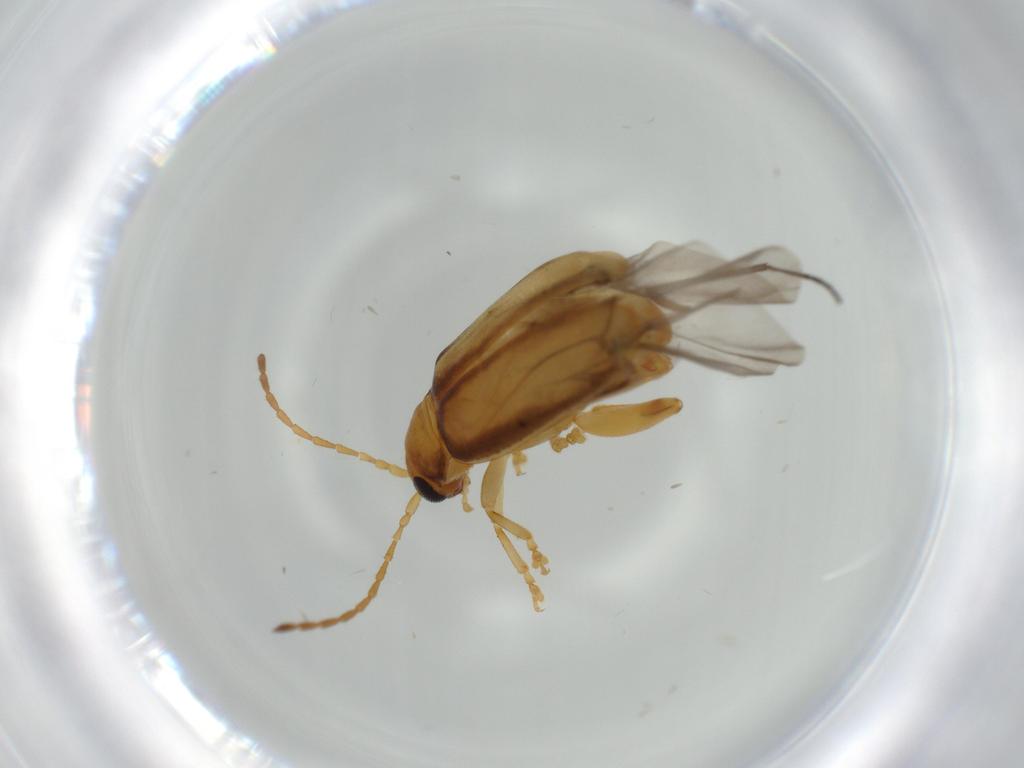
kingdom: Animalia
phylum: Arthropoda
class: Insecta
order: Coleoptera
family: Chrysomelidae
